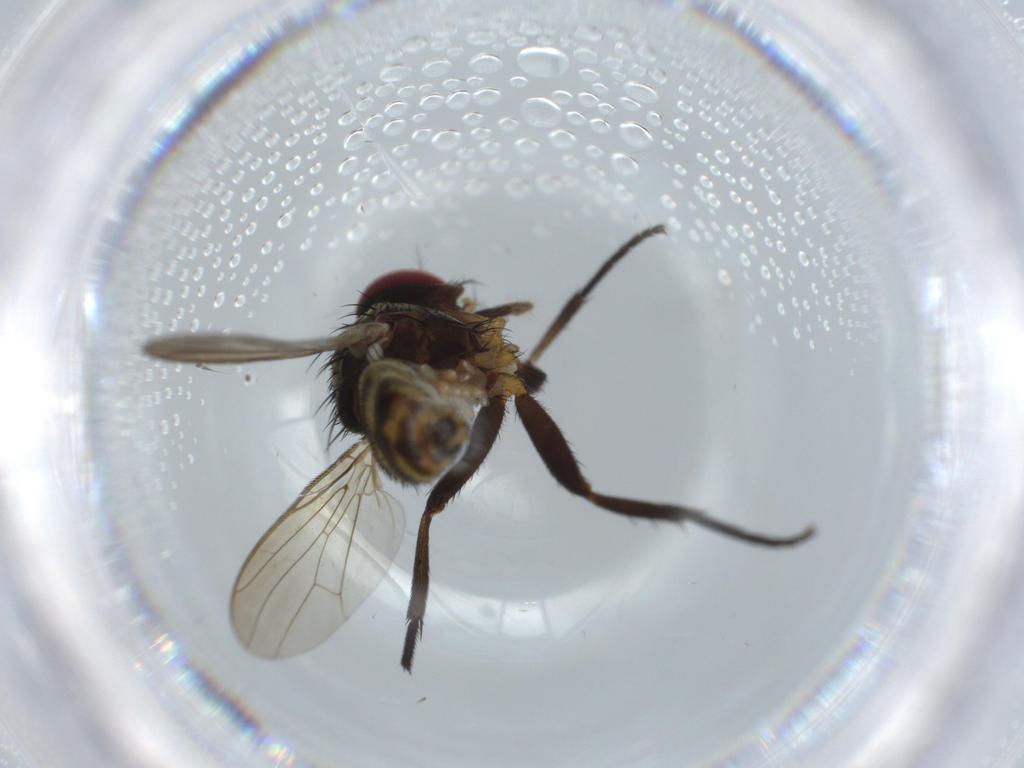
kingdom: Animalia
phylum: Arthropoda
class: Insecta
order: Diptera
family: Anthomyiidae
